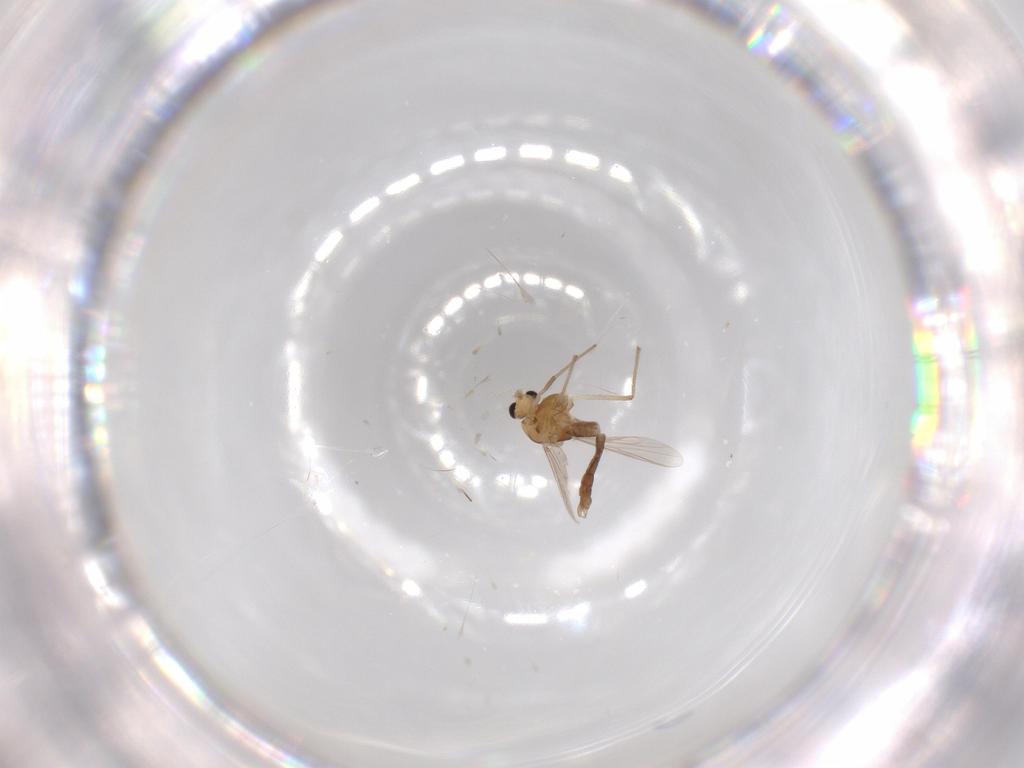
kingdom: Animalia
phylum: Arthropoda
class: Insecta
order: Diptera
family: Chironomidae
